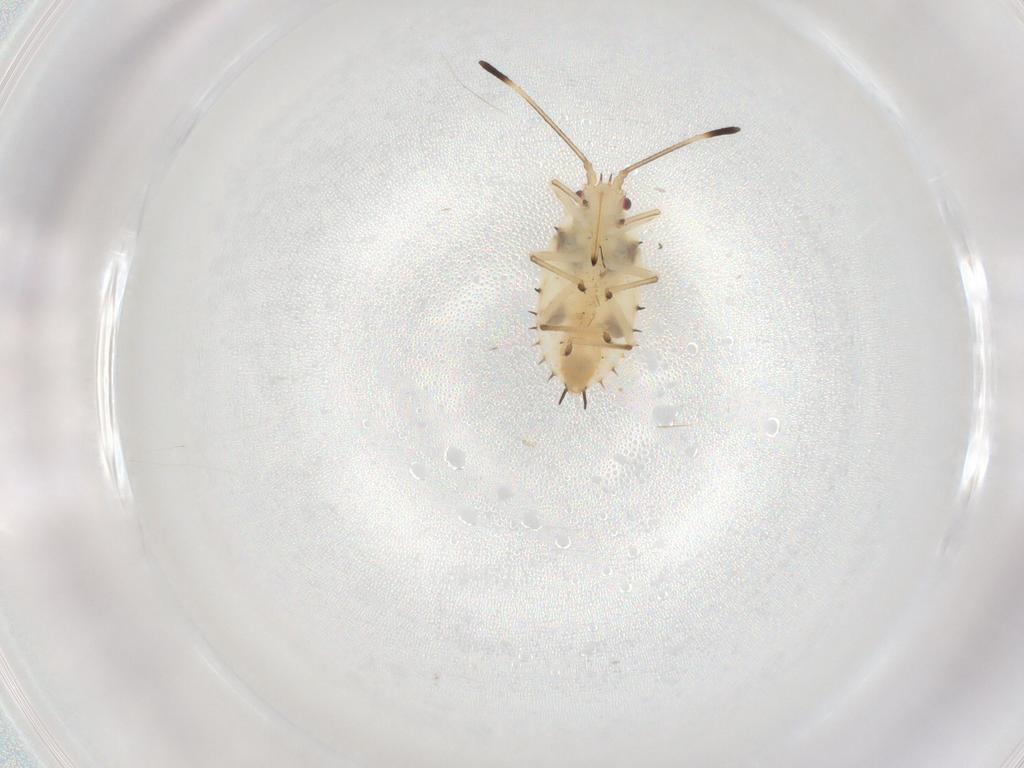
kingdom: Animalia
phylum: Arthropoda
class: Insecta
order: Hemiptera
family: Tingidae
